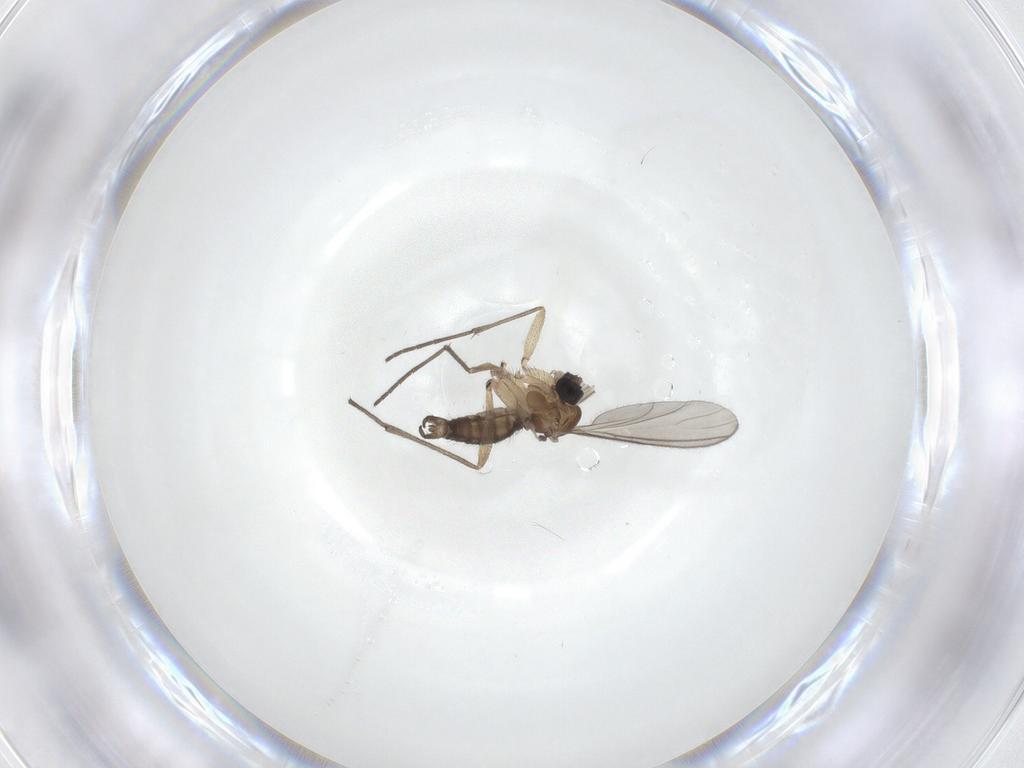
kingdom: Animalia
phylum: Arthropoda
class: Insecta
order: Diptera
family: Sciaridae
